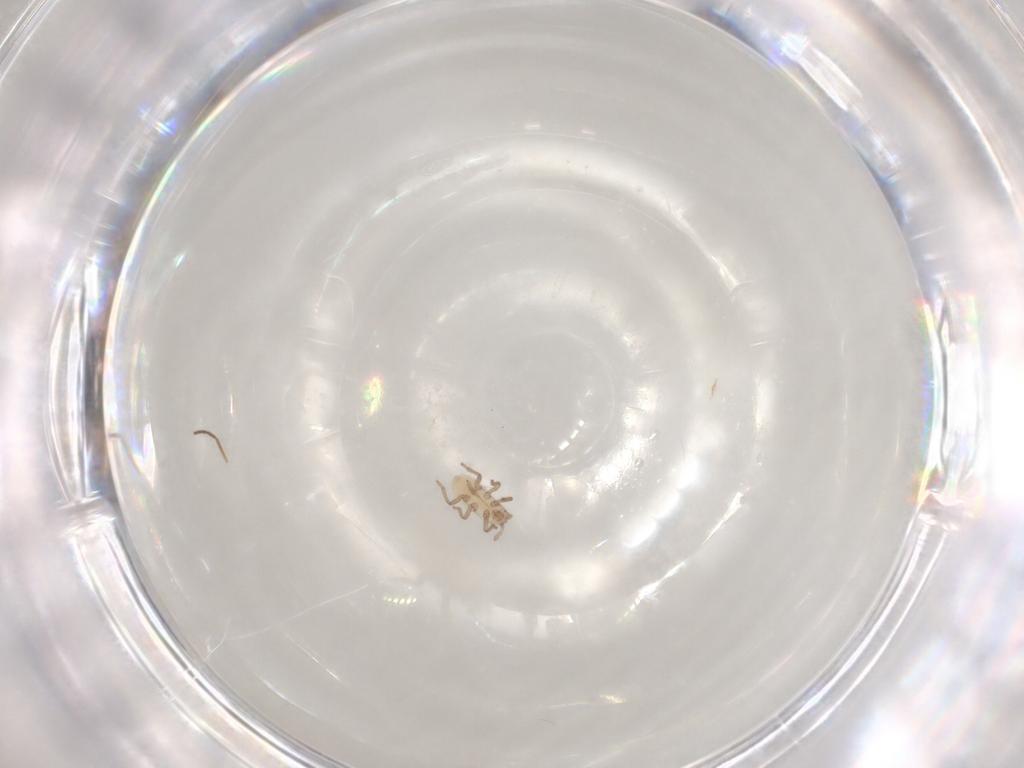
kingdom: Animalia
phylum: Arthropoda
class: Insecta
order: Hemiptera
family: Aphididae
